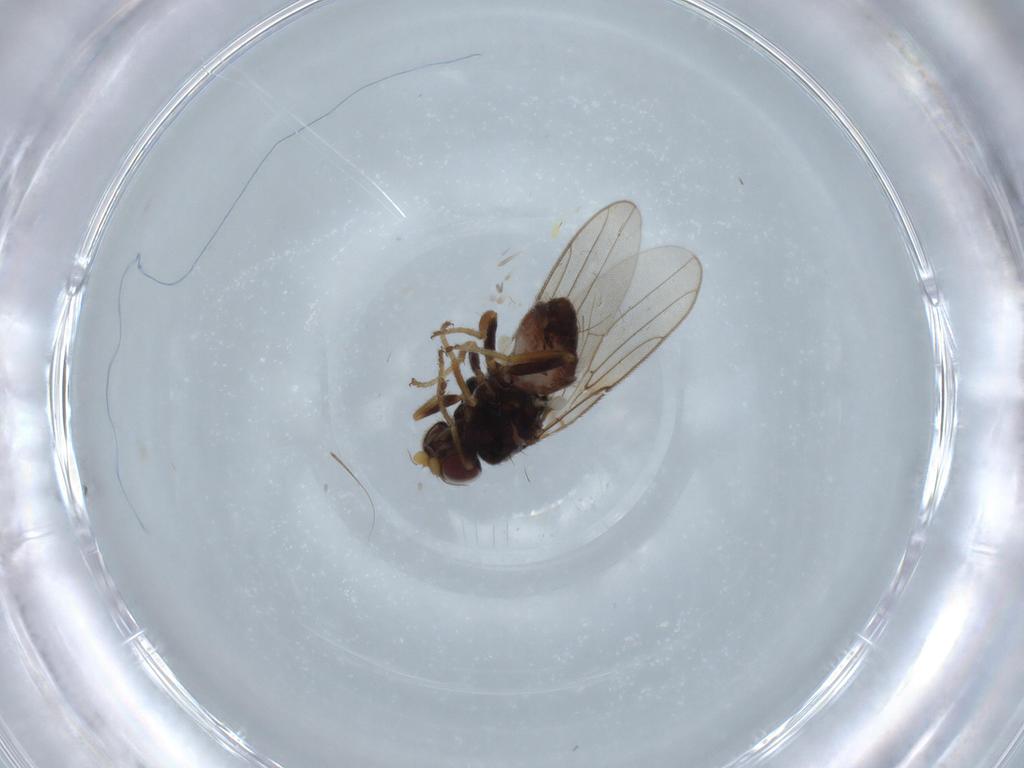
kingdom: Animalia
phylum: Arthropoda
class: Insecta
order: Diptera
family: Chloropidae
